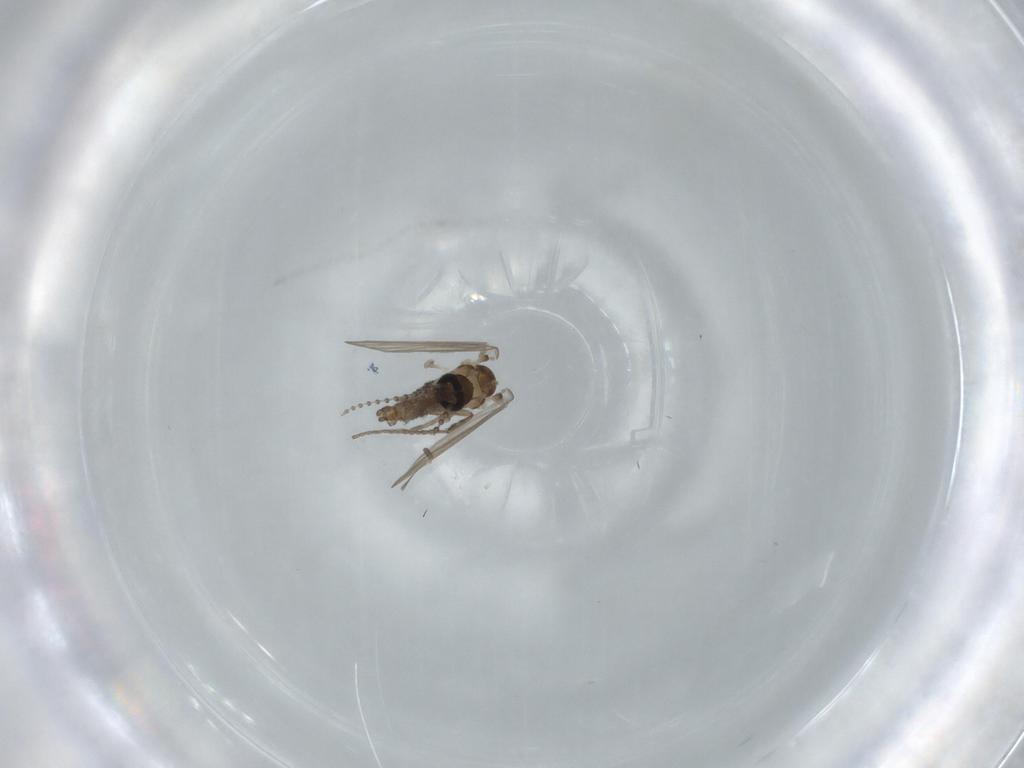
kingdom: Animalia
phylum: Arthropoda
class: Insecta
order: Diptera
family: Psychodidae
